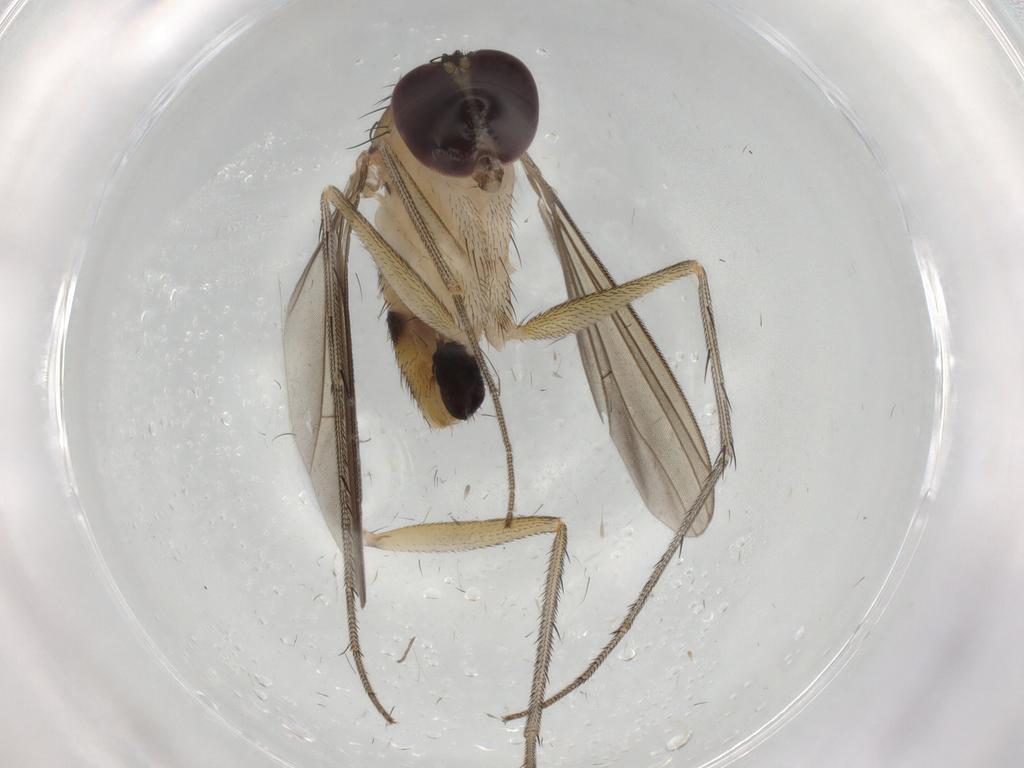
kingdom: Animalia
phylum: Arthropoda
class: Insecta
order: Diptera
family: Phoridae
